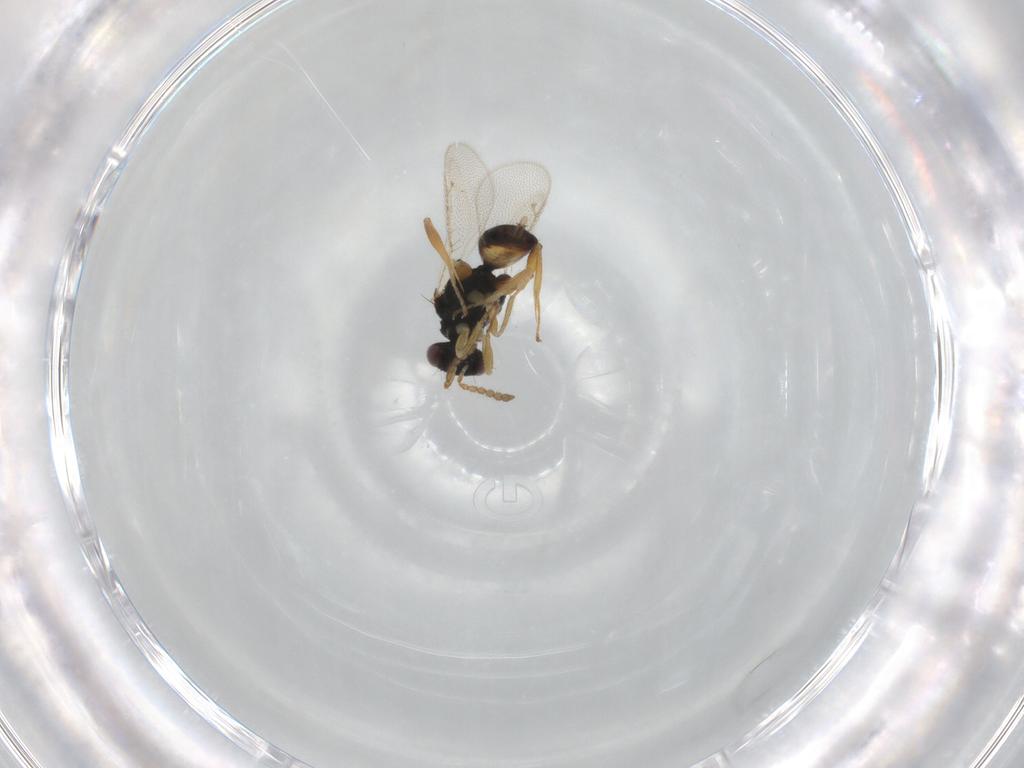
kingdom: Animalia
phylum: Arthropoda
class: Insecta
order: Hymenoptera
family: Eulophidae
